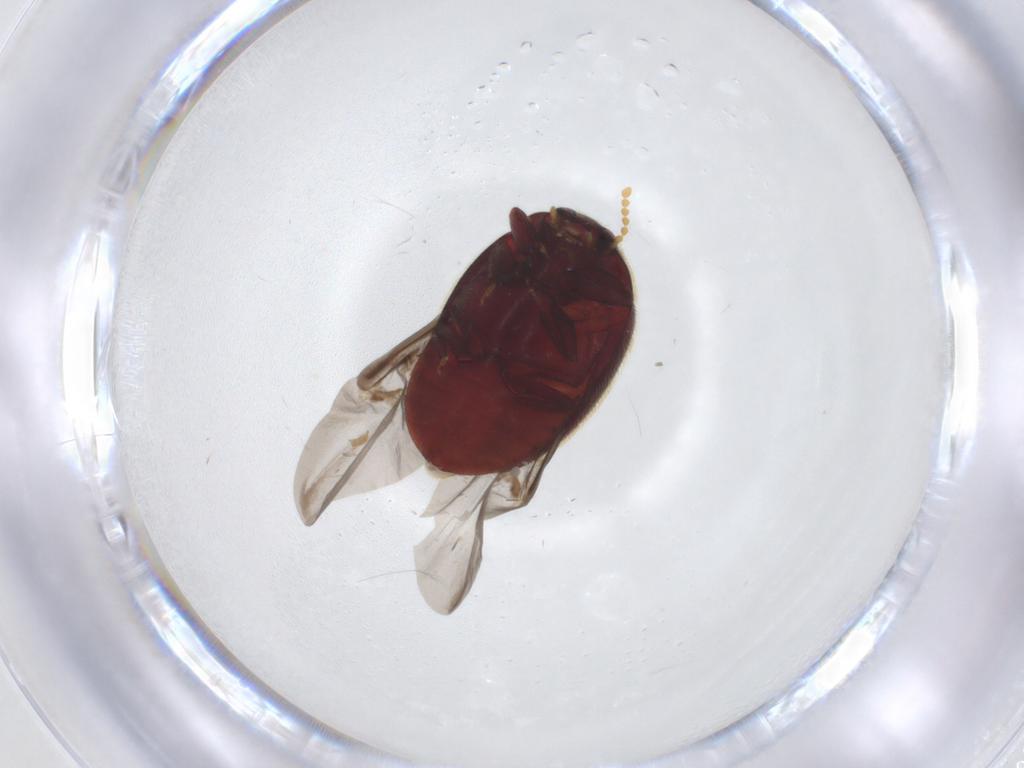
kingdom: Animalia
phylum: Arthropoda
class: Insecta
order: Coleoptera
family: Limnichidae
